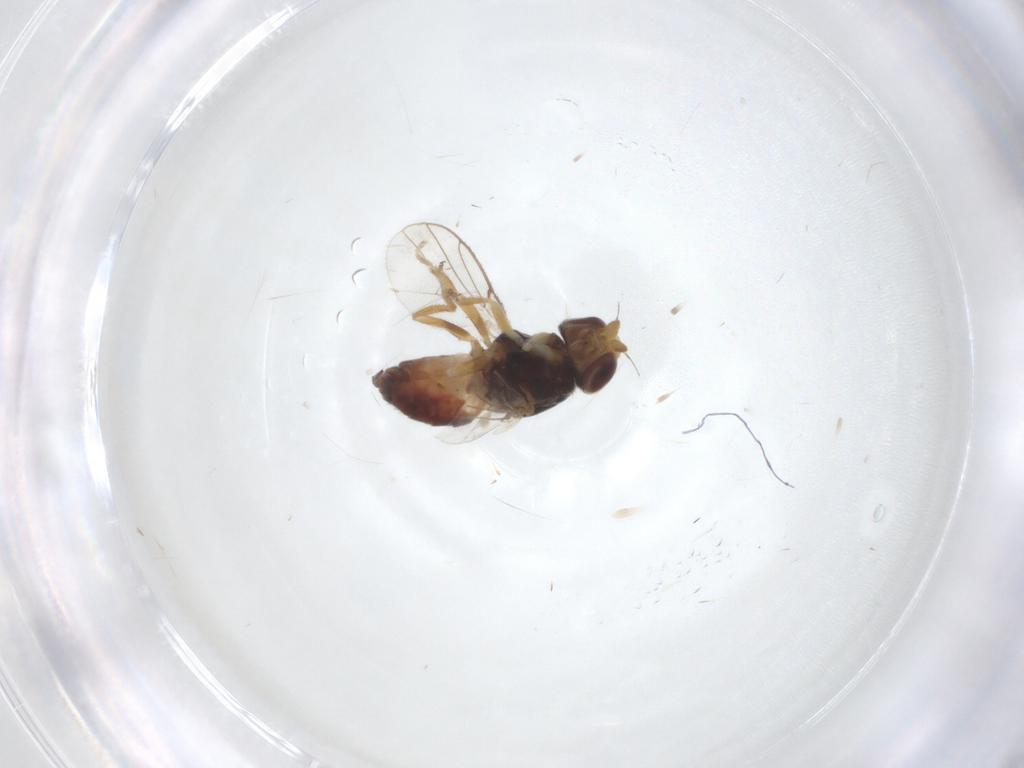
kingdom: Animalia
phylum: Arthropoda
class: Insecta
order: Diptera
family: Chloropidae
